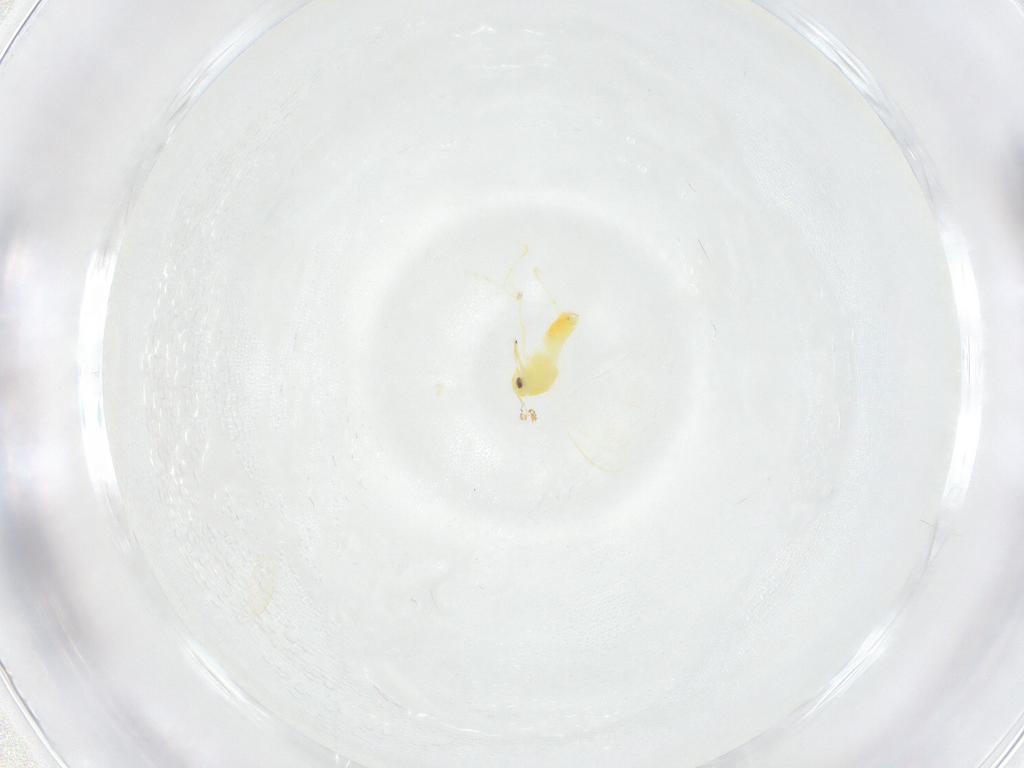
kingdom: Animalia
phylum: Arthropoda
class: Insecta
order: Hemiptera
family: Aleyrodidae
